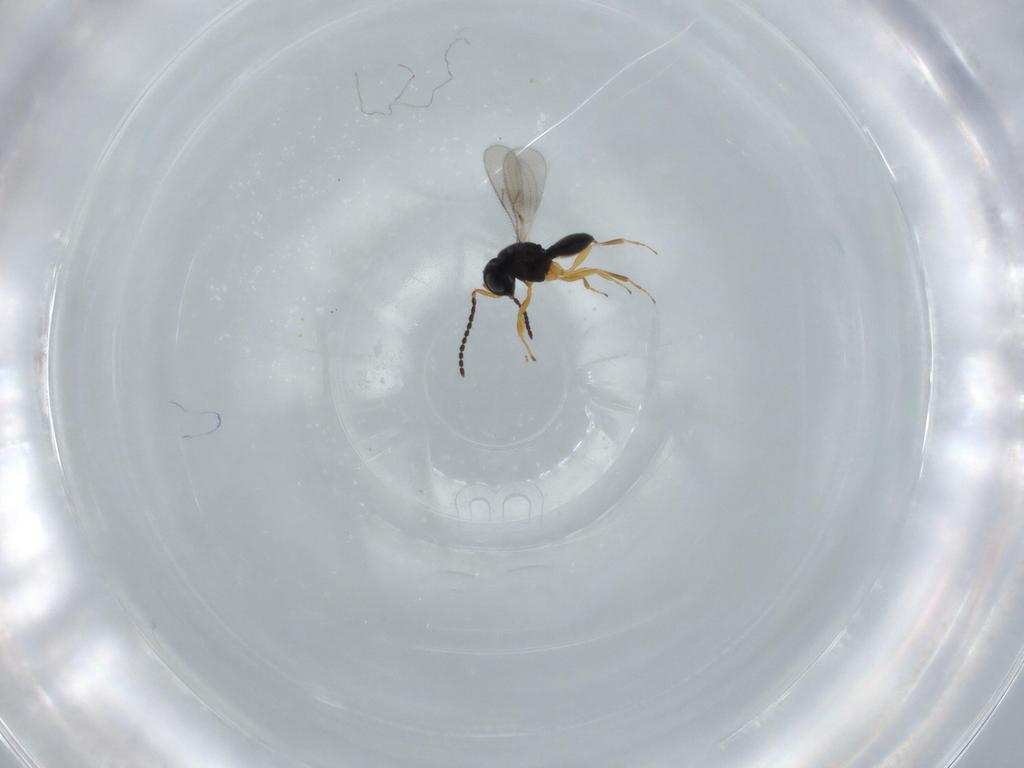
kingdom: Animalia
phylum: Arthropoda
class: Insecta
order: Hymenoptera
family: Scelionidae
